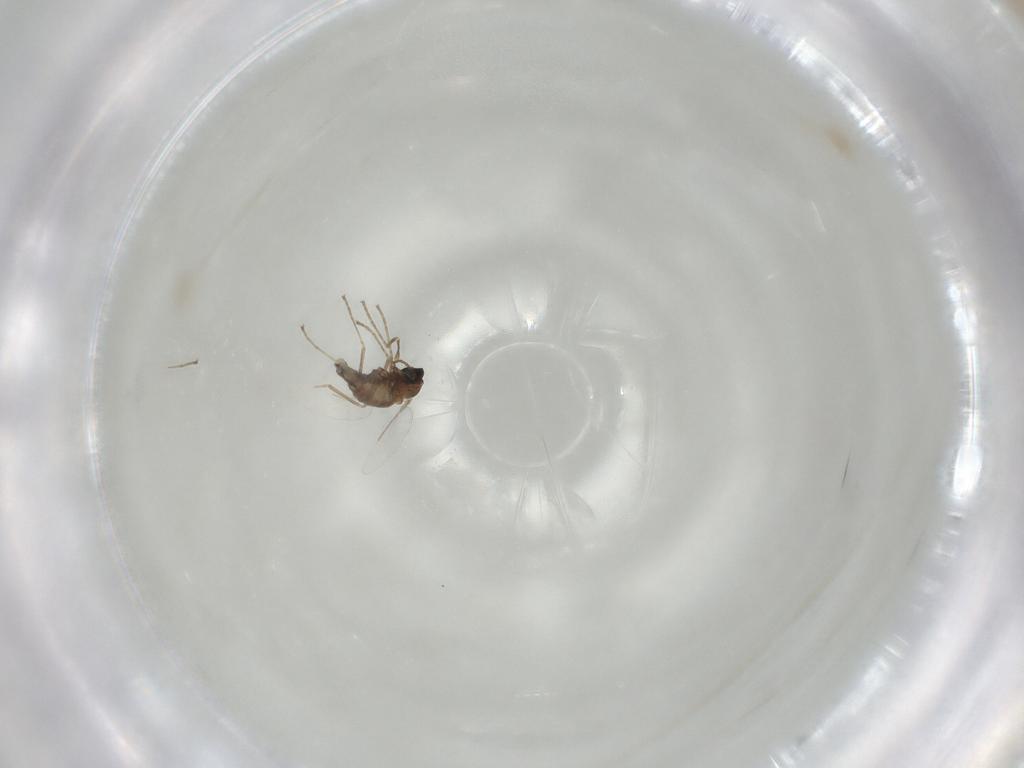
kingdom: Animalia
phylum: Arthropoda
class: Insecta
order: Diptera
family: Cecidomyiidae
